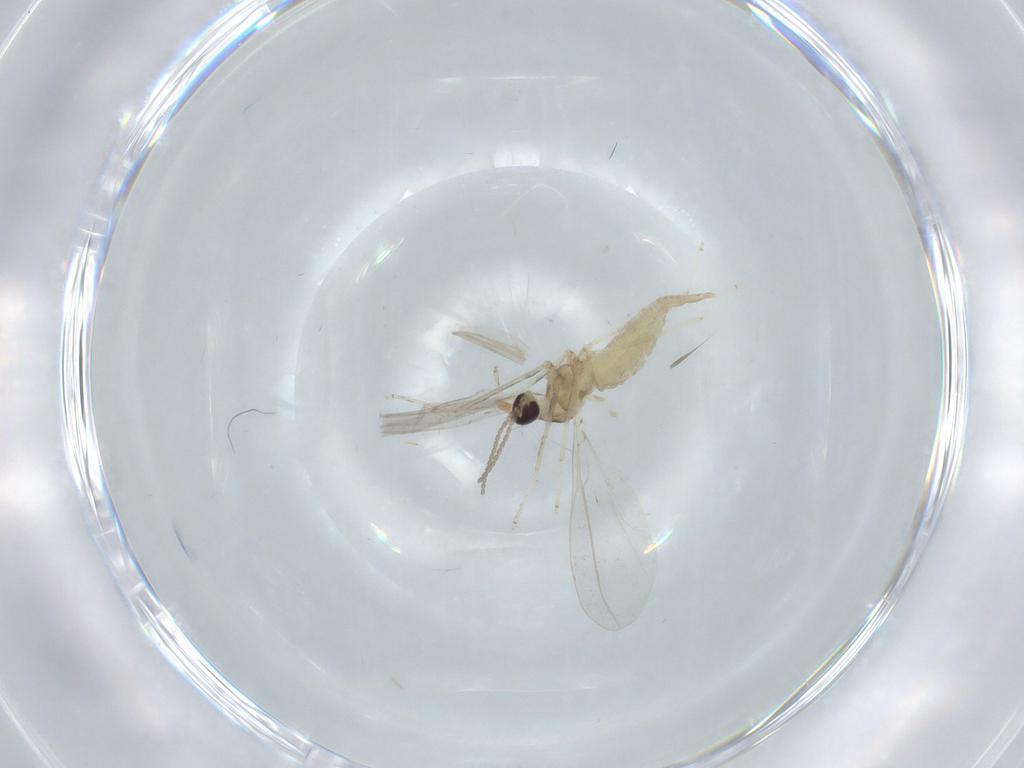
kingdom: Animalia
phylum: Arthropoda
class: Insecta
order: Diptera
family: Cecidomyiidae
